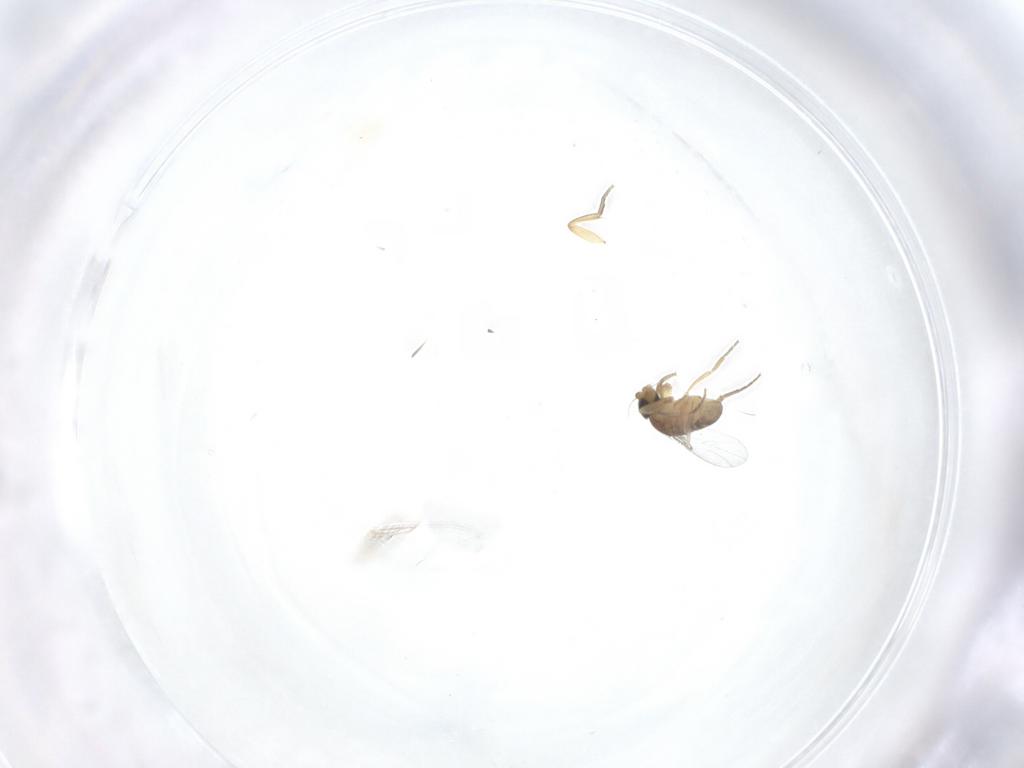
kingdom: Animalia
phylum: Arthropoda
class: Insecta
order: Diptera
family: Psychodidae
